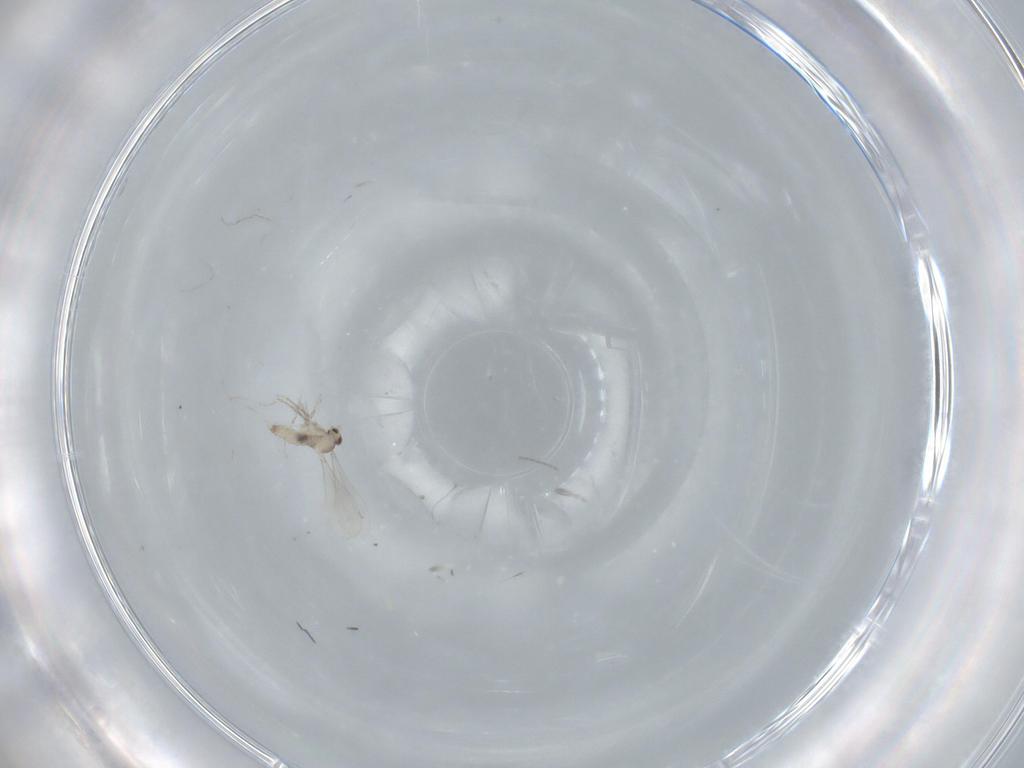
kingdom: Animalia
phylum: Arthropoda
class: Insecta
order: Diptera
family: Cecidomyiidae
